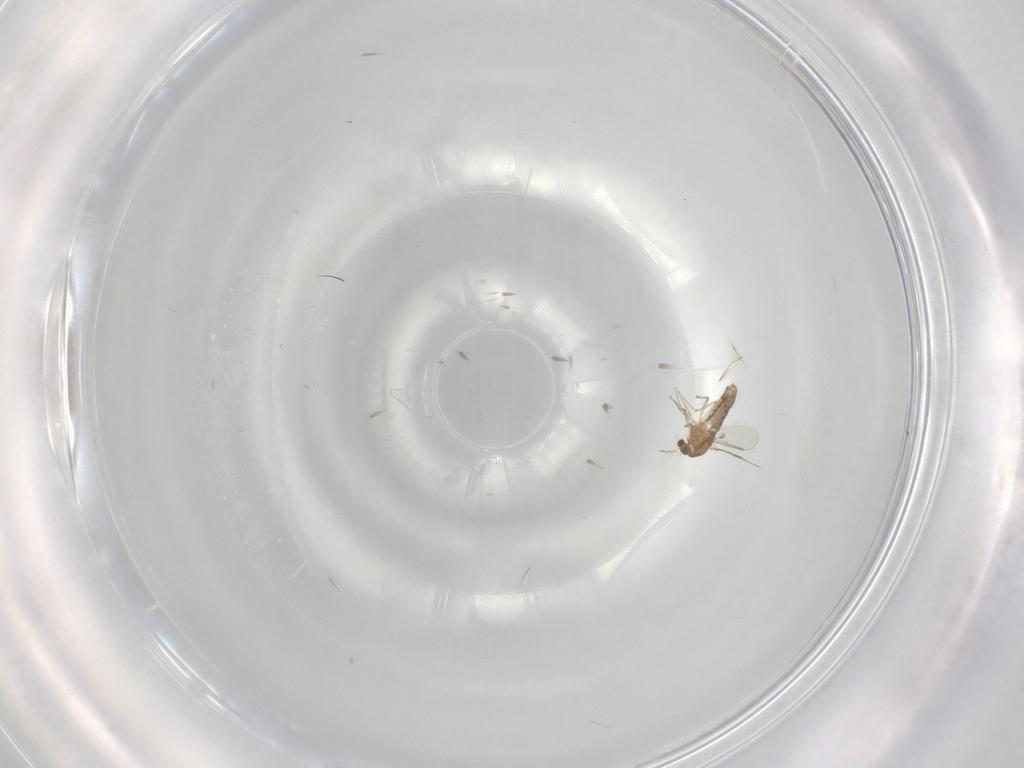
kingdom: Animalia
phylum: Arthropoda
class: Insecta
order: Diptera
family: Chironomidae
